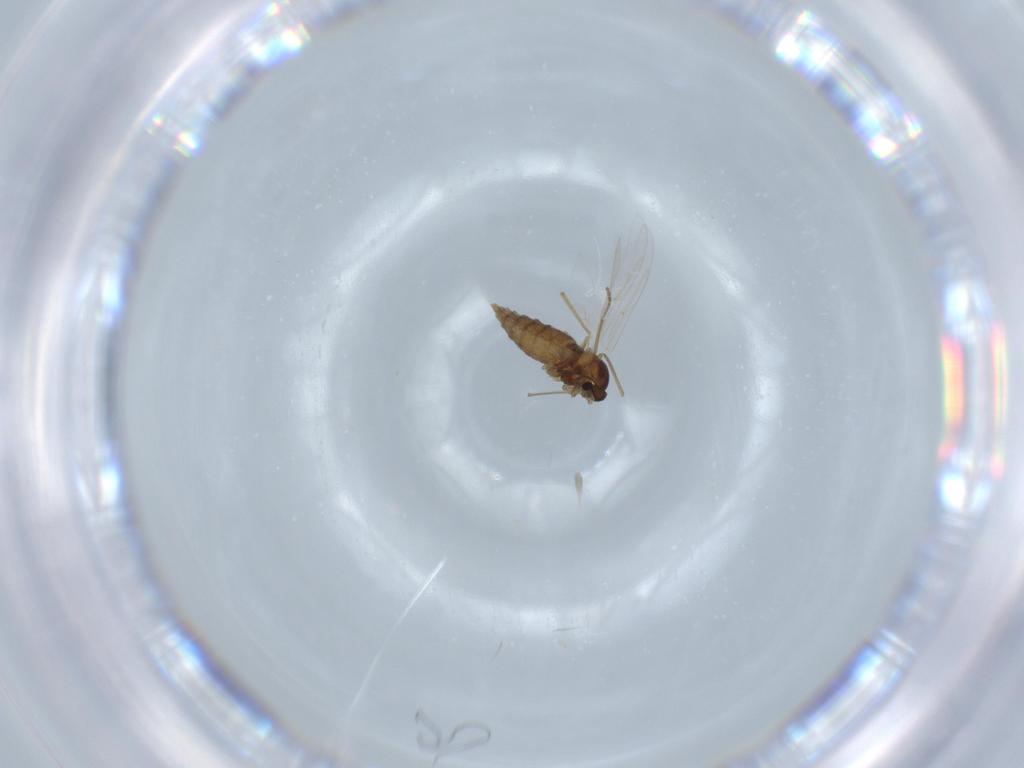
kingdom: Animalia
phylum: Arthropoda
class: Insecta
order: Diptera
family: Cecidomyiidae
